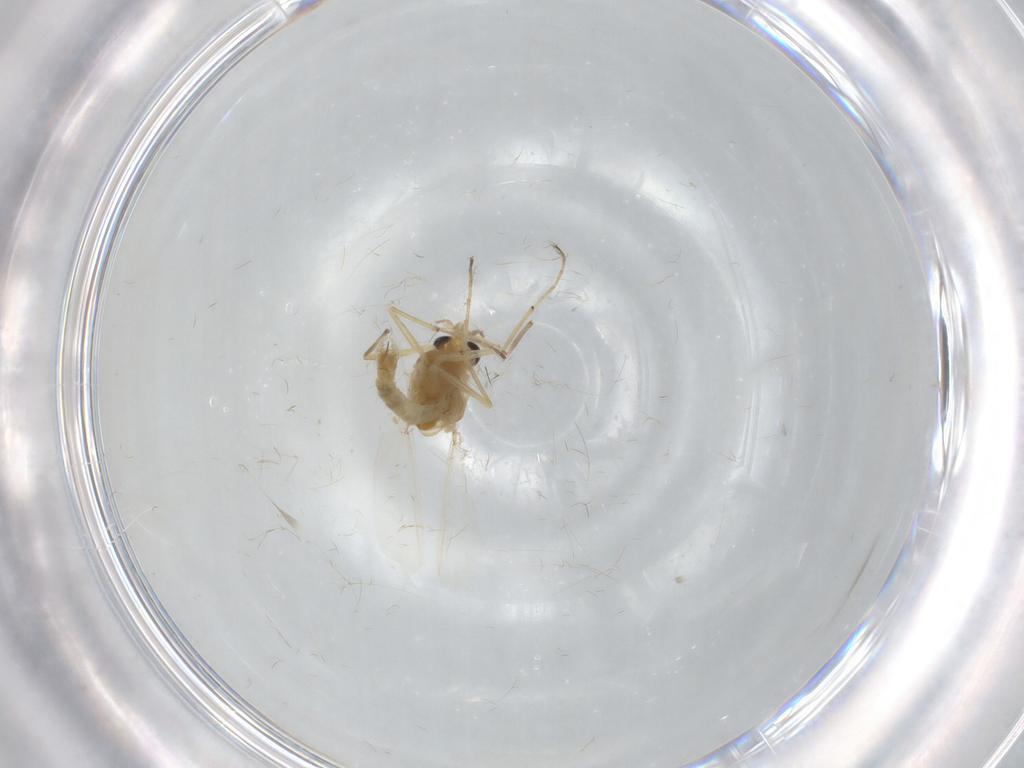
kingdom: Animalia
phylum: Arthropoda
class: Insecta
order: Diptera
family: Chironomidae
